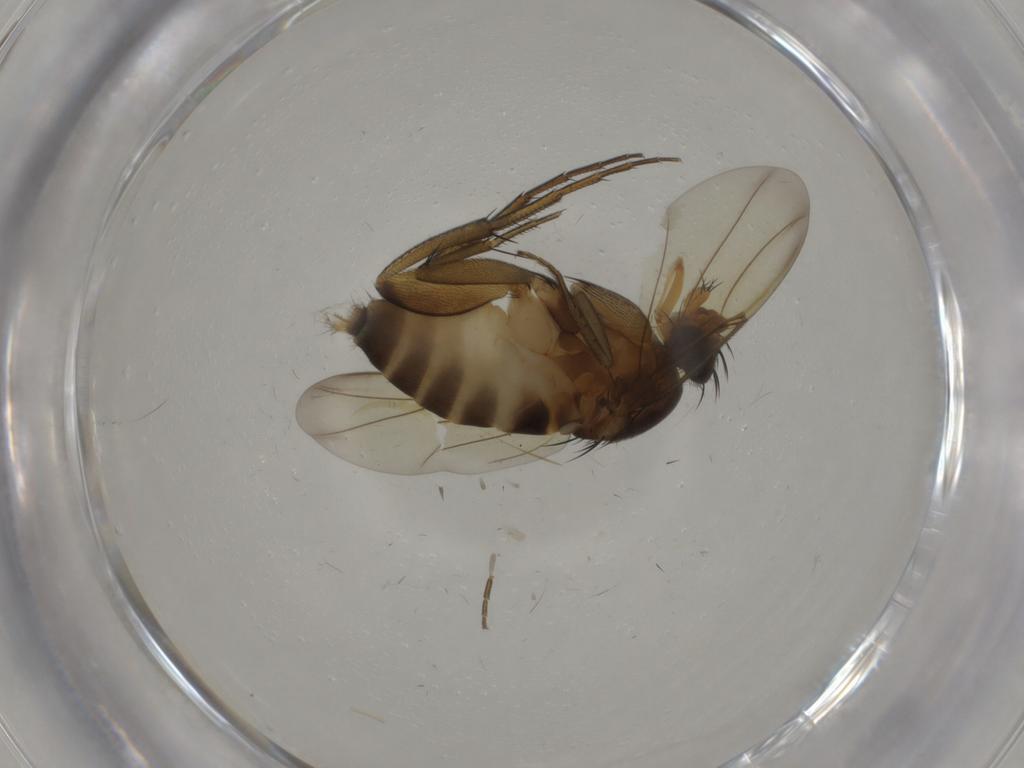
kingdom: Animalia
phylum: Arthropoda
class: Insecta
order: Diptera
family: Phoridae
